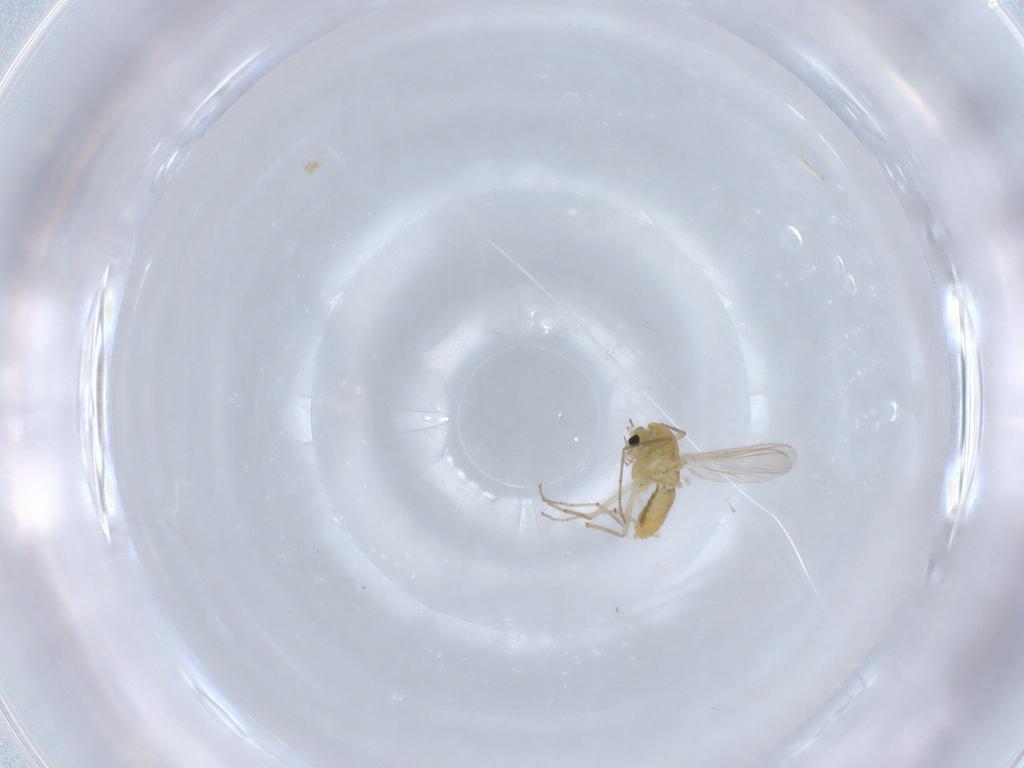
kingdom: Animalia
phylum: Arthropoda
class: Insecta
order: Diptera
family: Chironomidae
